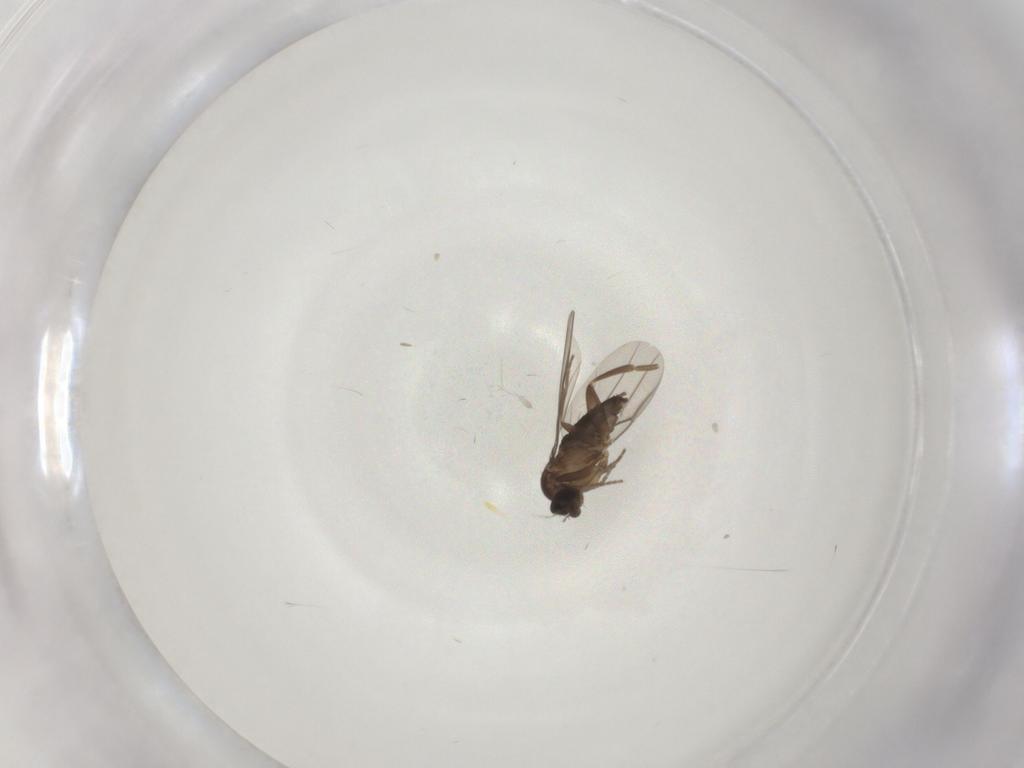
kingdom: Animalia
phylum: Arthropoda
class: Insecta
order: Diptera
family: Phoridae
